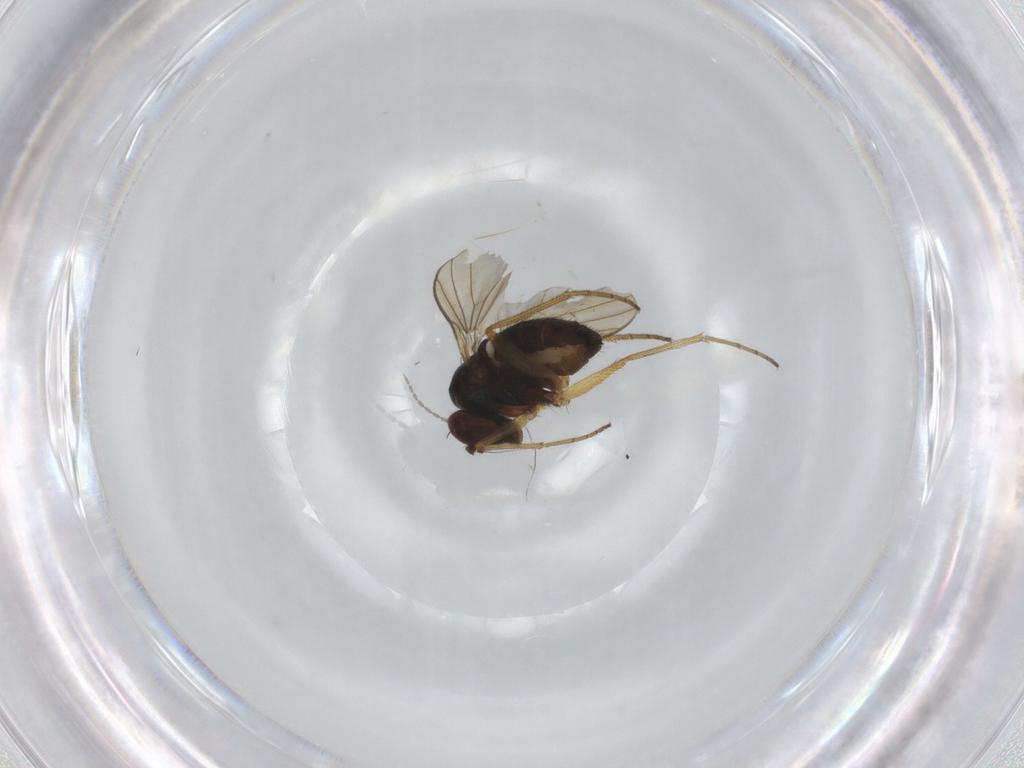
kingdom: Animalia
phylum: Arthropoda
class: Insecta
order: Diptera
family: Dolichopodidae
